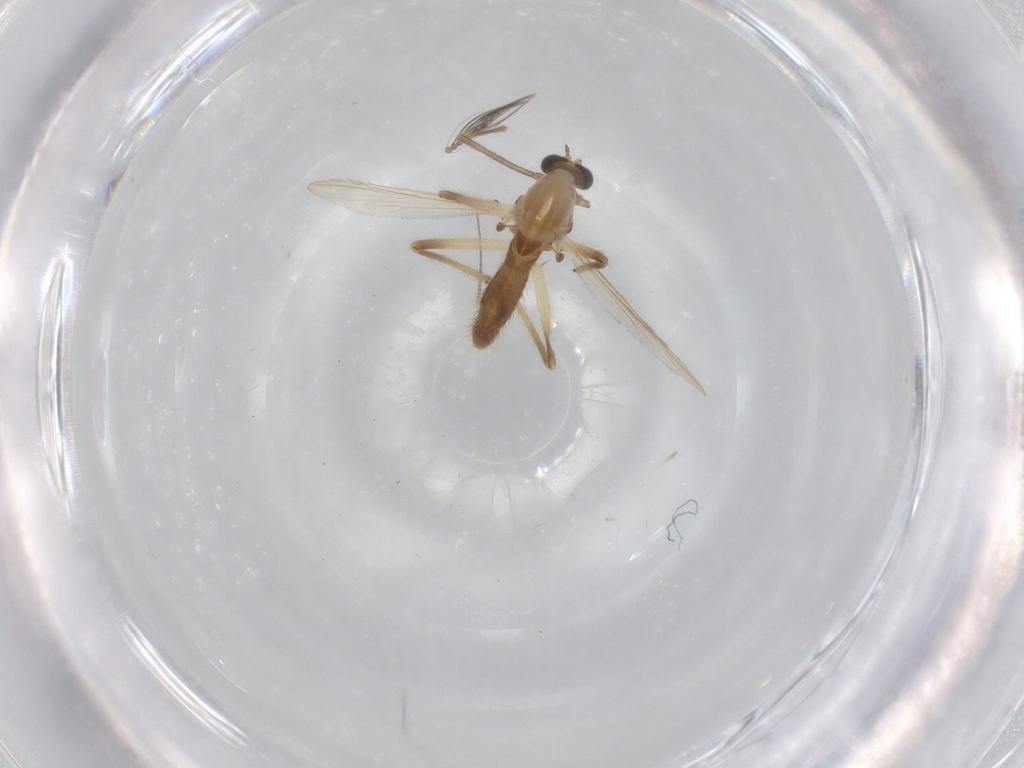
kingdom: Animalia
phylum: Arthropoda
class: Insecta
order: Diptera
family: Chironomidae
